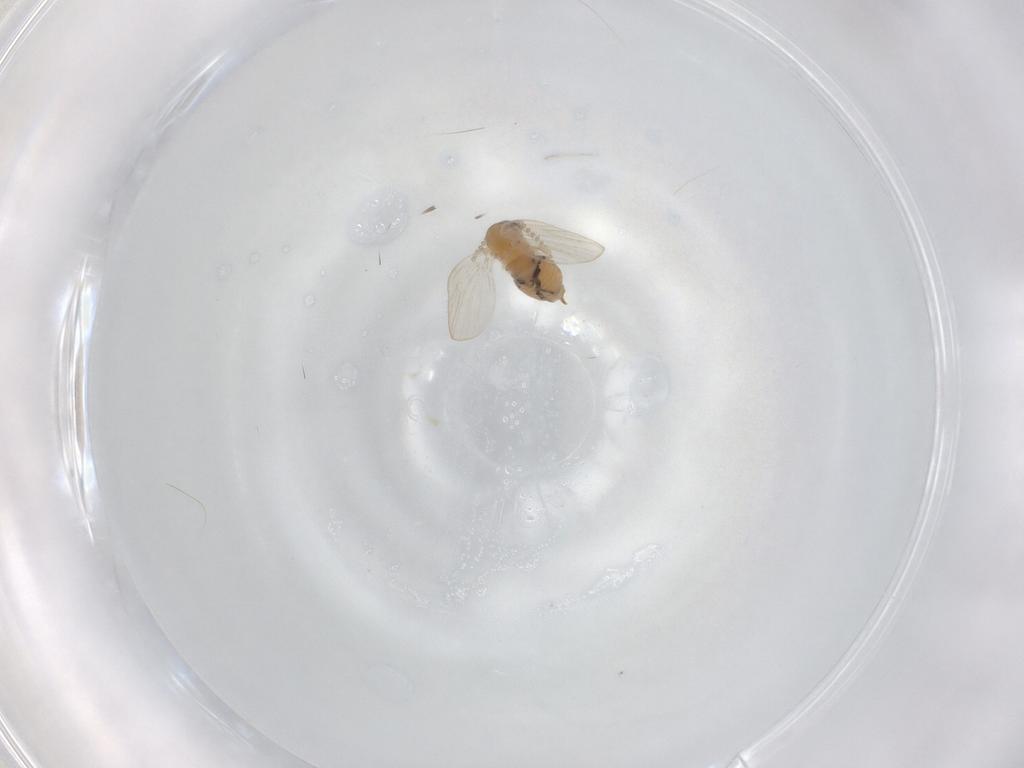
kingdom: Animalia
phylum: Arthropoda
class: Insecta
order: Diptera
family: Psychodidae
